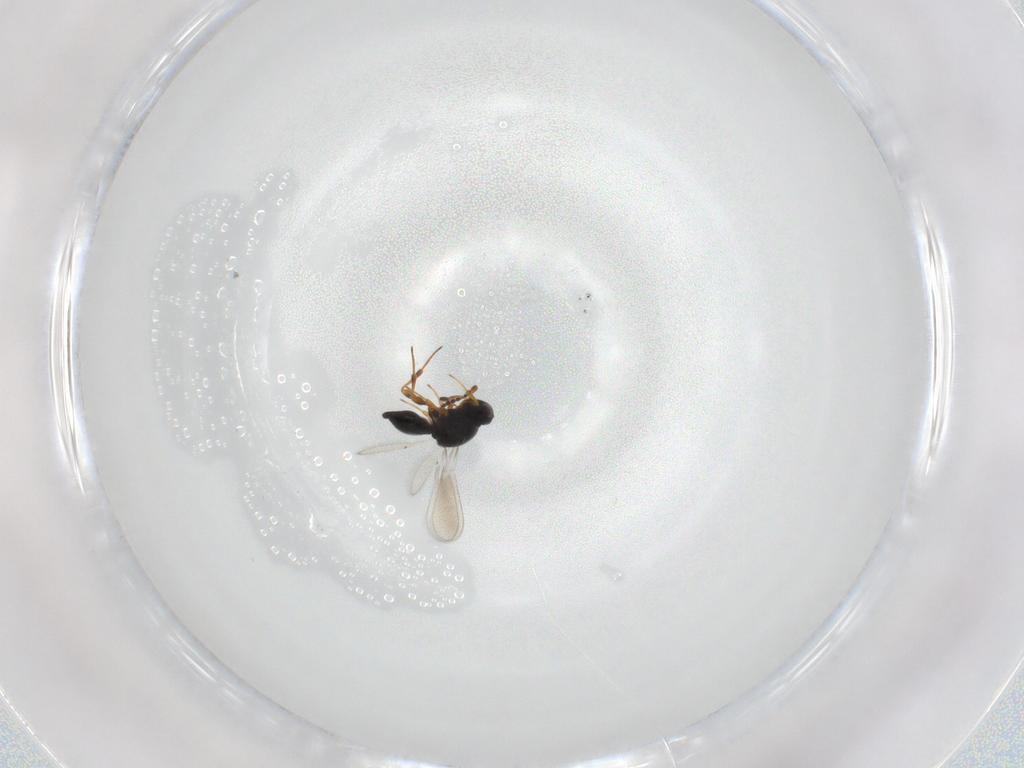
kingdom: Animalia
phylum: Arthropoda
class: Insecta
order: Hymenoptera
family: Platygastridae
